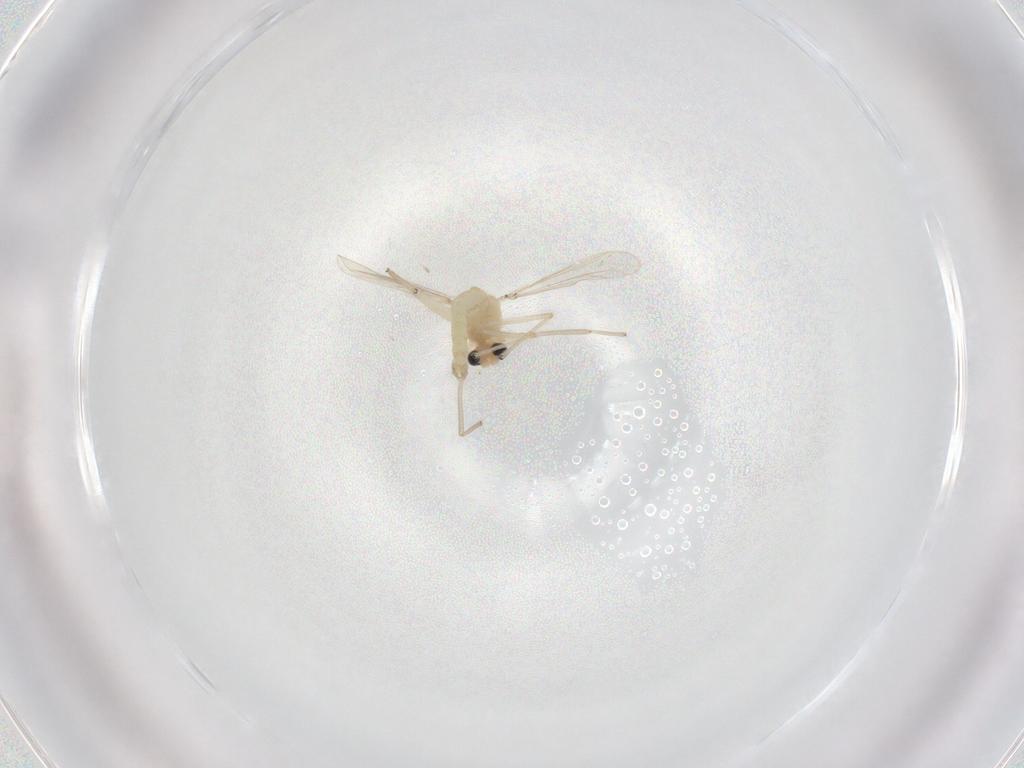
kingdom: Animalia
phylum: Arthropoda
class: Insecta
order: Diptera
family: Chironomidae
